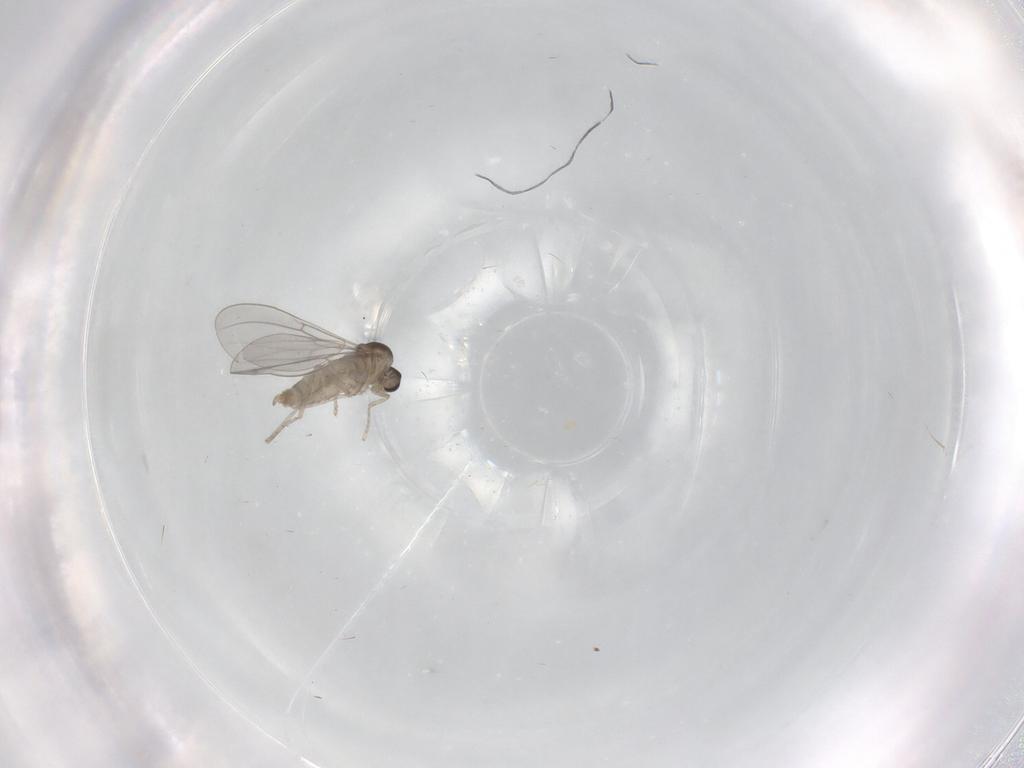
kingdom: Animalia
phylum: Arthropoda
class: Insecta
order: Diptera
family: Cecidomyiidae
